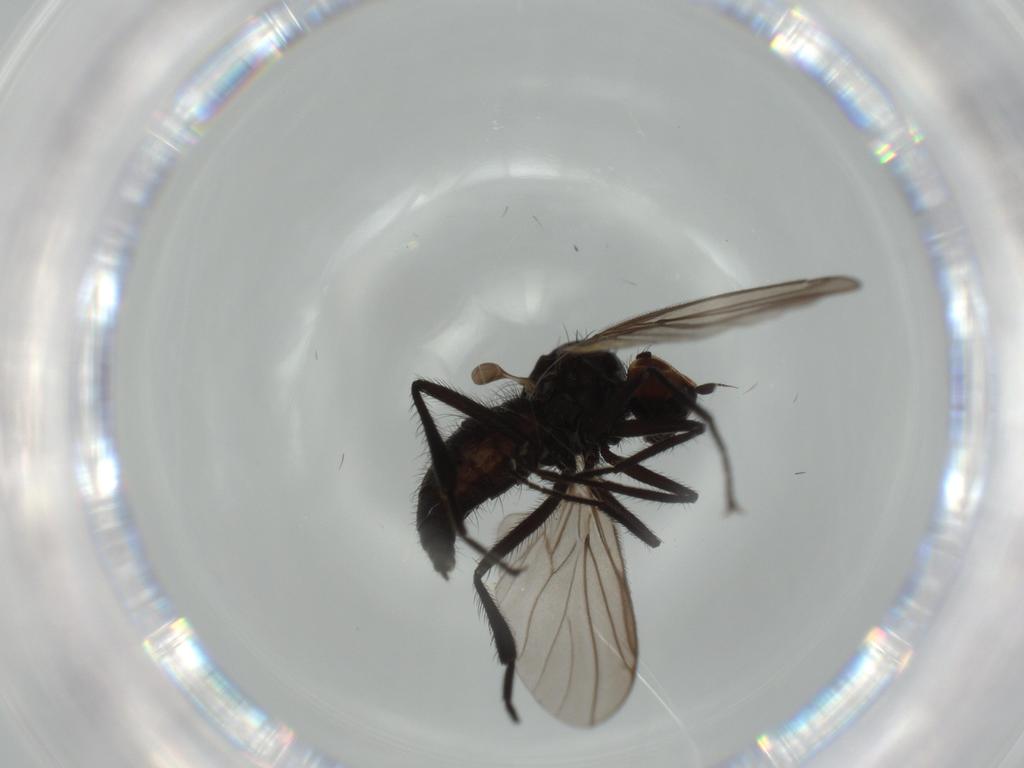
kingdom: Animalia
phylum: Arthropoda
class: Insecta
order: Diptera
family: Hybotidae
